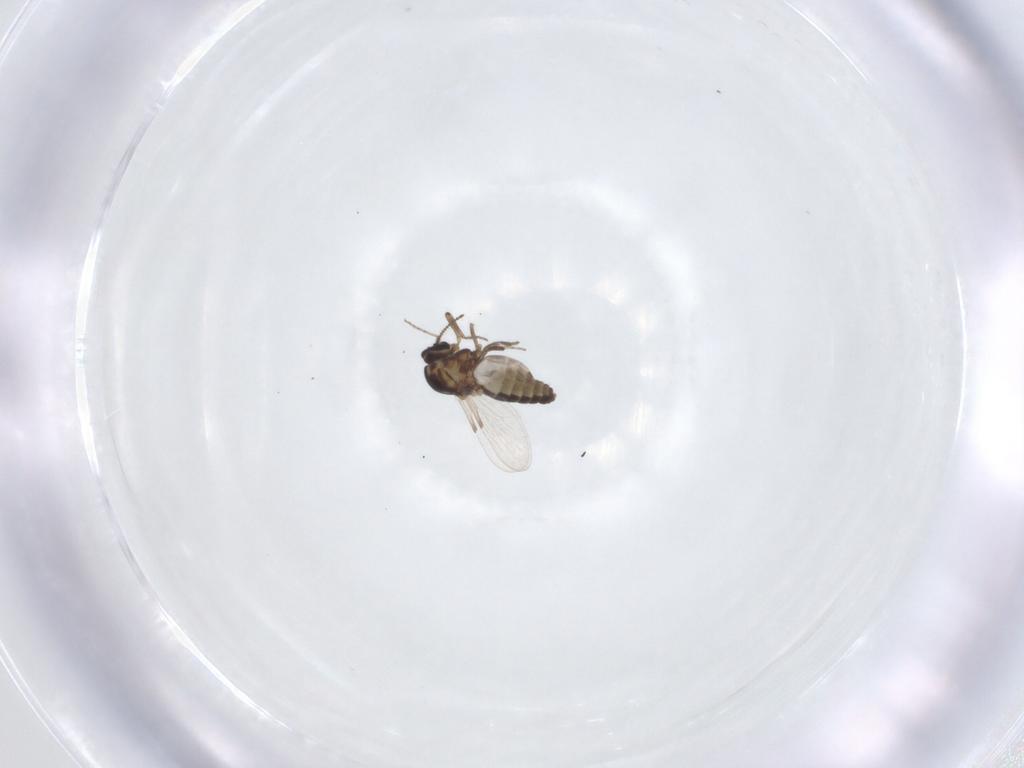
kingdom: Animalia
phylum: Arthropoda
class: Insecta
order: Diptera
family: Ceratopogonidae
